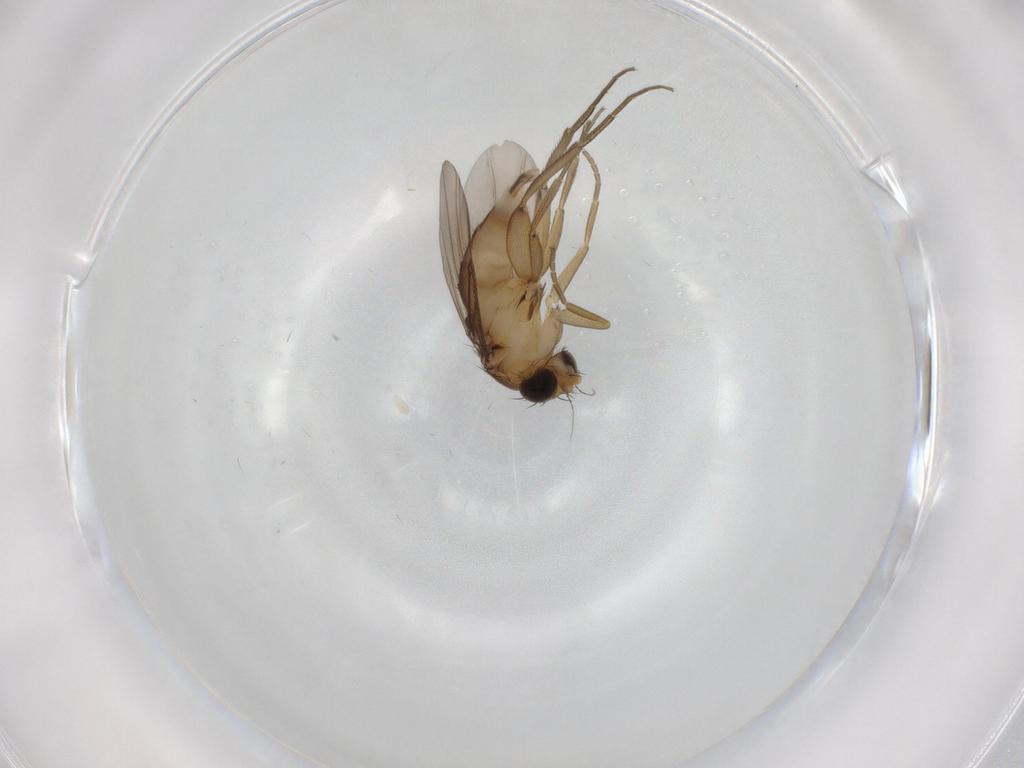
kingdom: Animalia
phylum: Arthropoda
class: Insecta
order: Diptera
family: Phoridae
